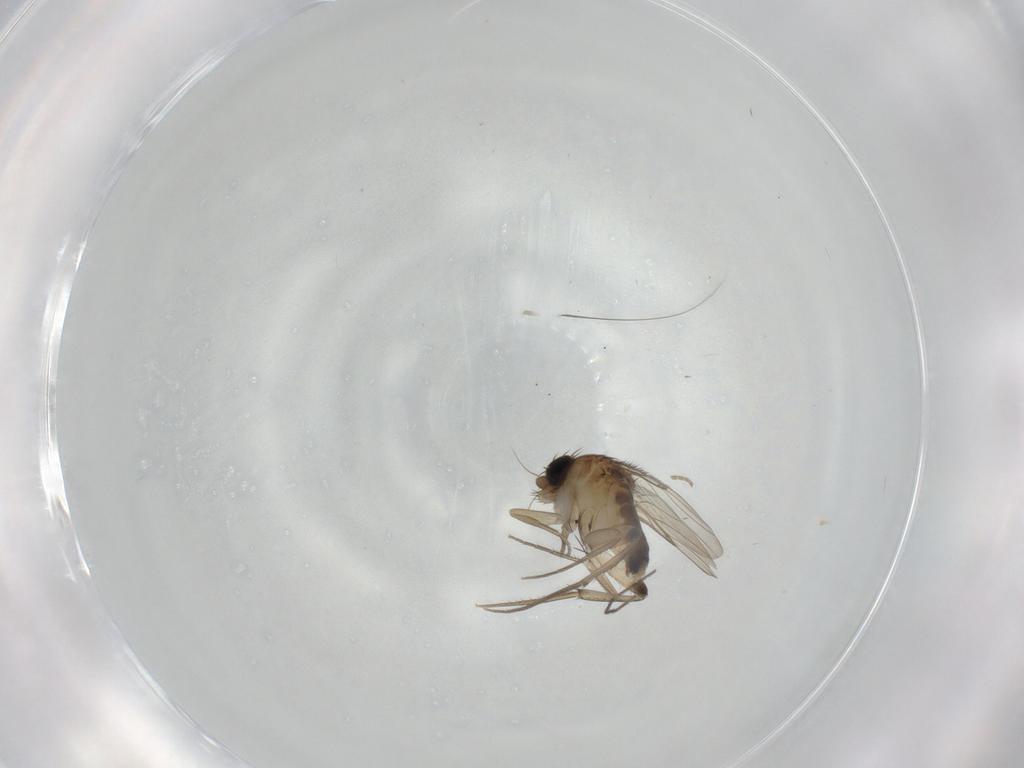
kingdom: Animalia
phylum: Arthropoda
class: Insecta
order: Diptera
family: Phoridae
